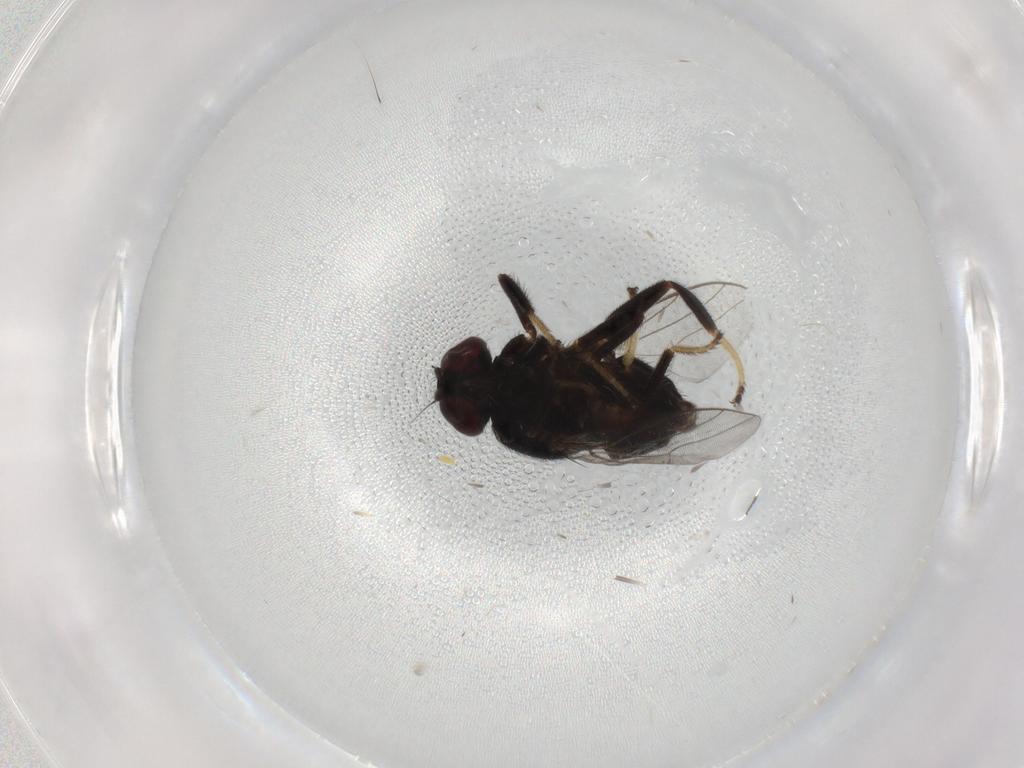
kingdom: Animalia
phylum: Arthropoda
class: Insecta
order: Diptera
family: Chloropidae
